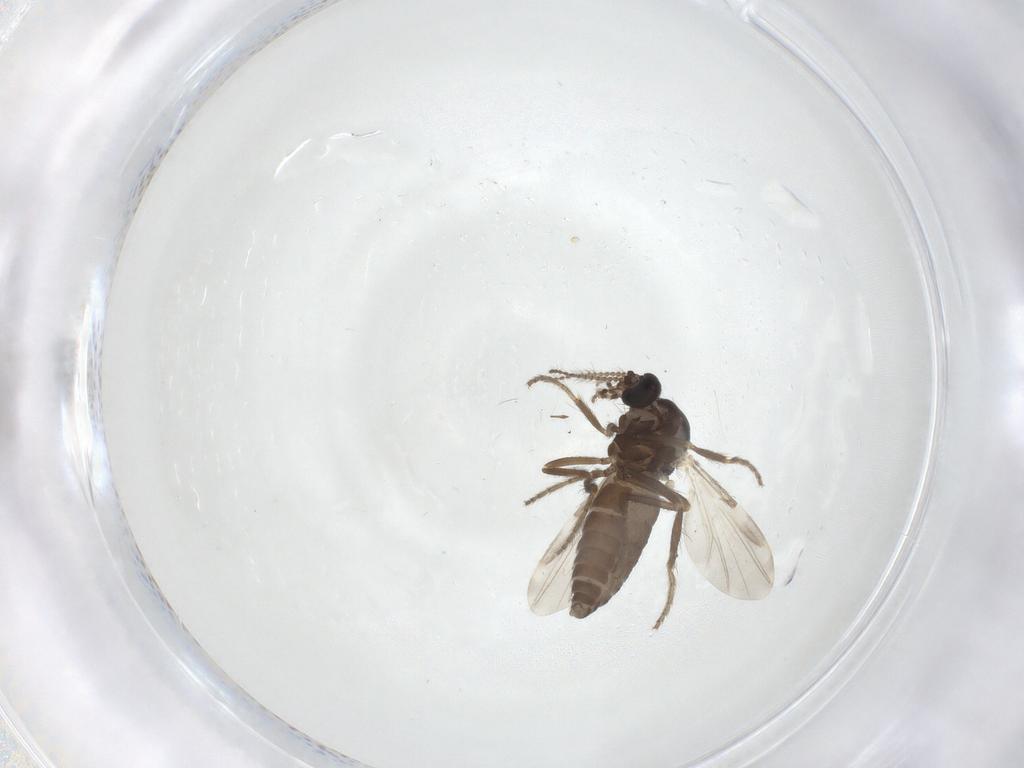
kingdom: Animalia
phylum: Arthropoda
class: Insecta
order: Diptera
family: Ceratopogonidae
